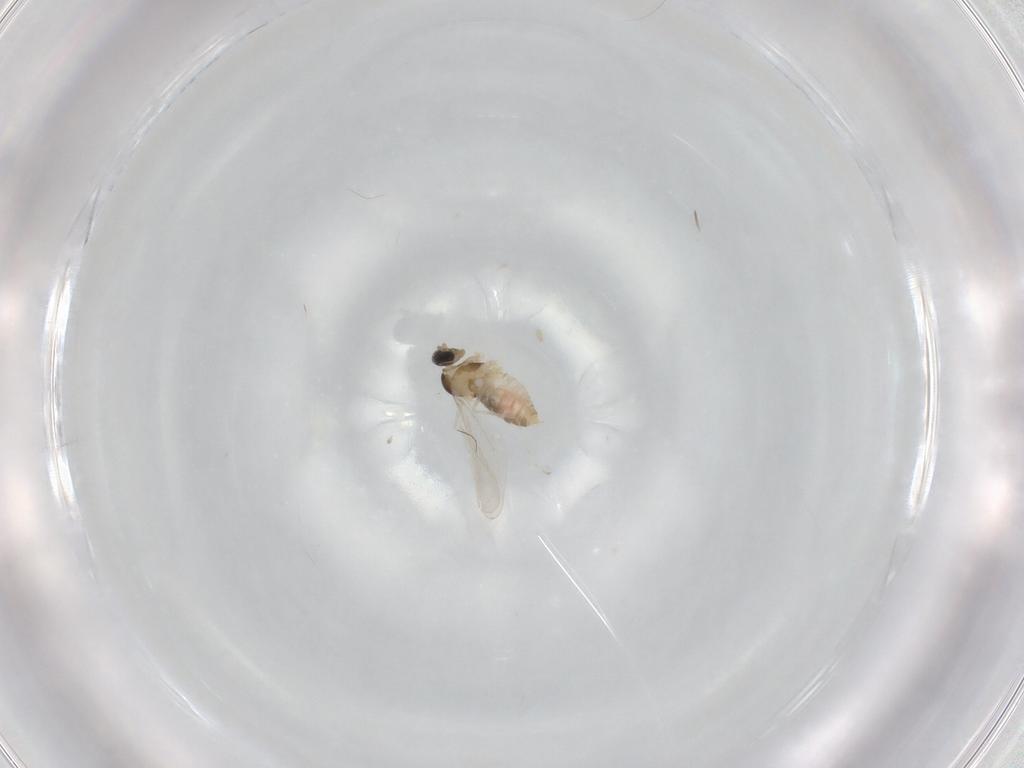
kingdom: Animalia
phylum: Arthropoda
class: Insecta
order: Diptera
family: Cecidomyiidae
